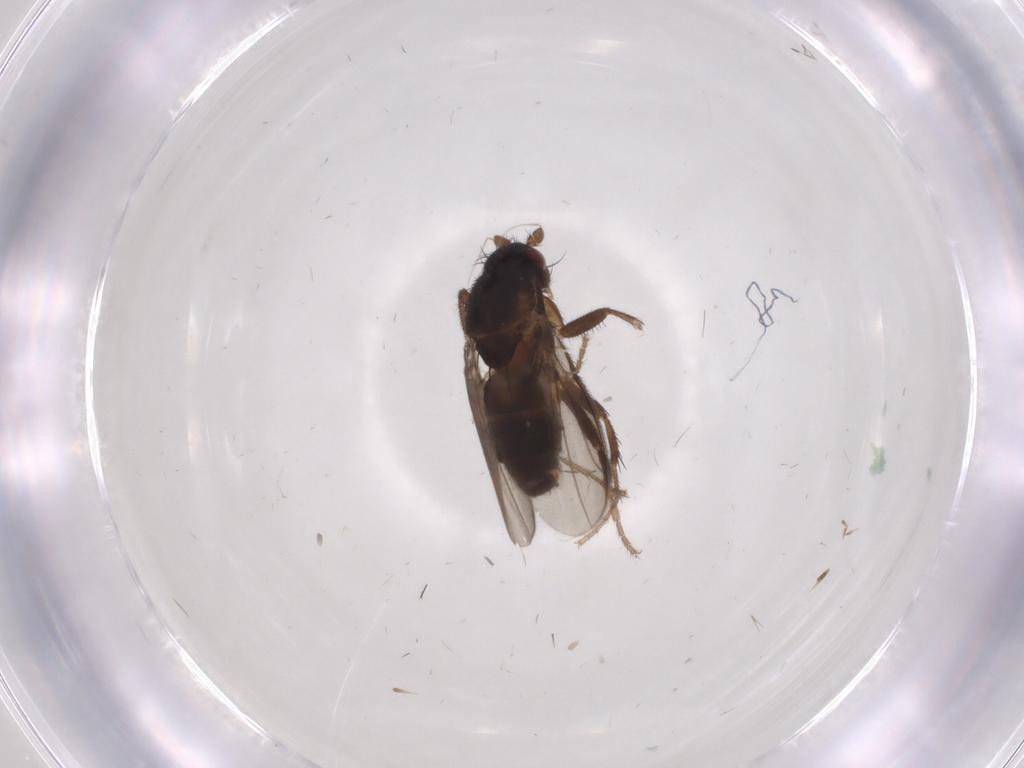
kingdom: Animalia
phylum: Arthropoda
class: Insecta
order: Diptera
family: Sphaeroceridae
